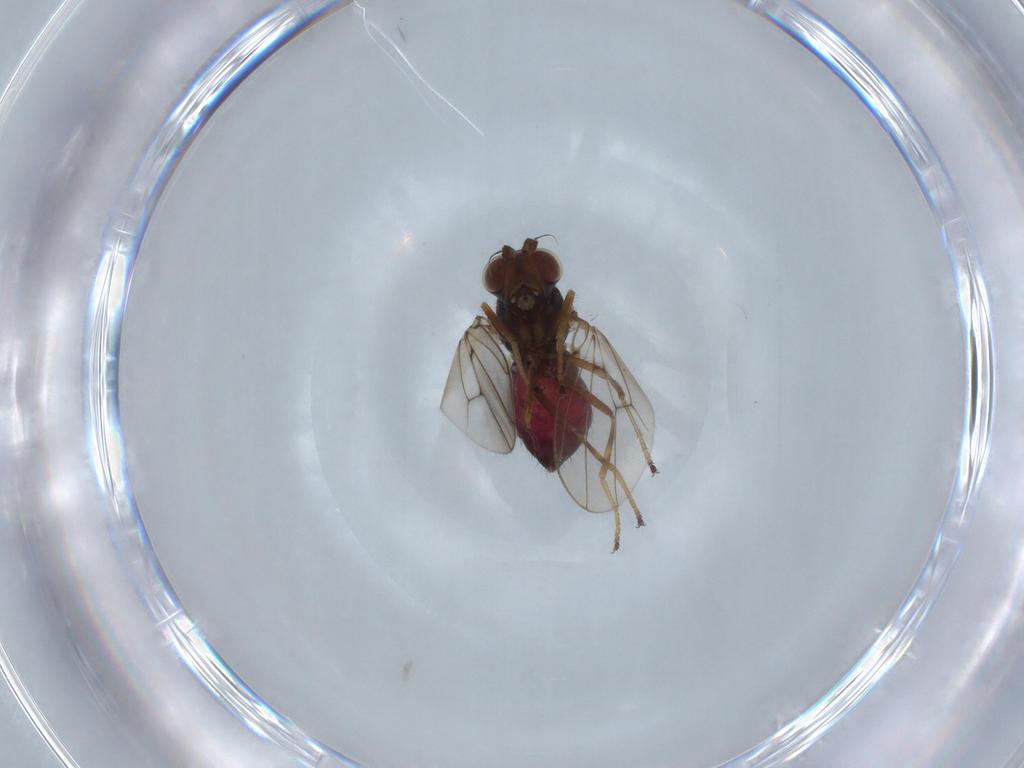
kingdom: Animalia
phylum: Arthropoda
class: Insecta
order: Diptera
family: Ephydridae
